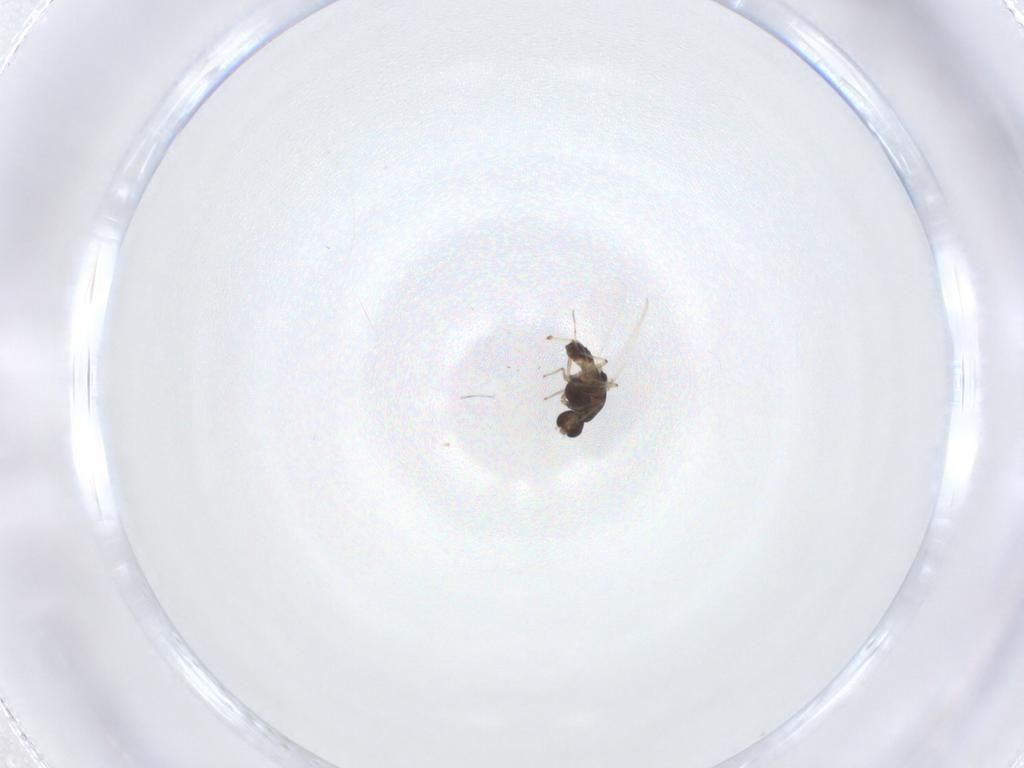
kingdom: Animalia
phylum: Arthropoda
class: Insecta
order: Diptera
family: Chironomidae
